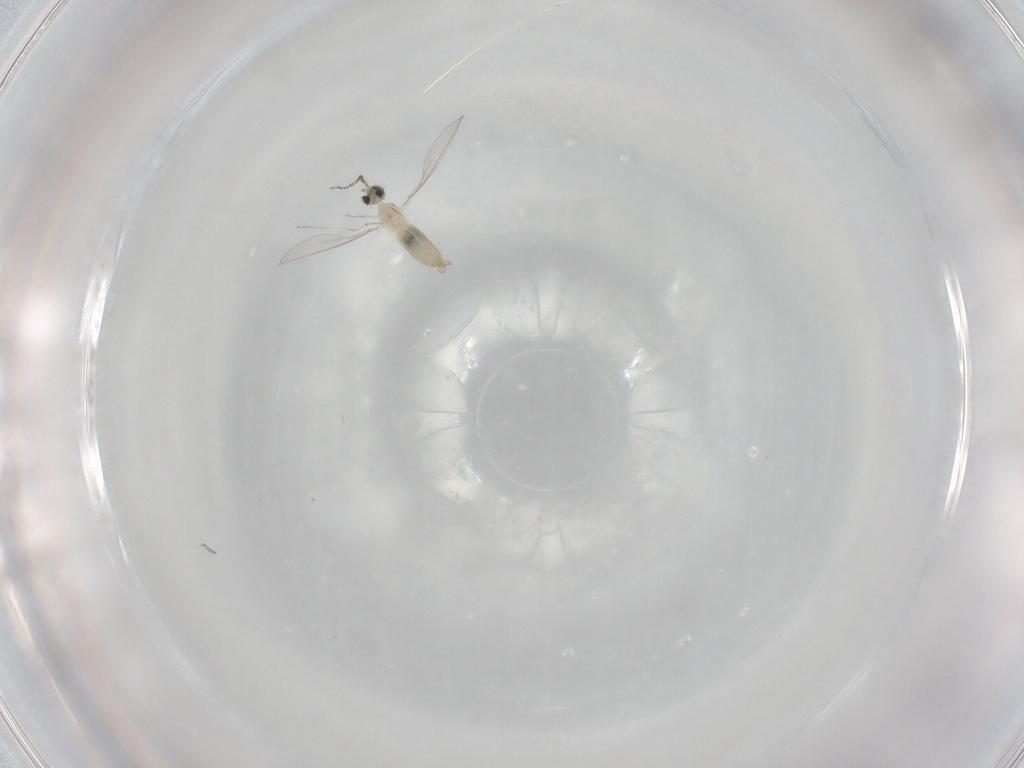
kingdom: Animalia
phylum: Arthropoda
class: Insecta
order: Diptera
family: Cecidomyiidae
